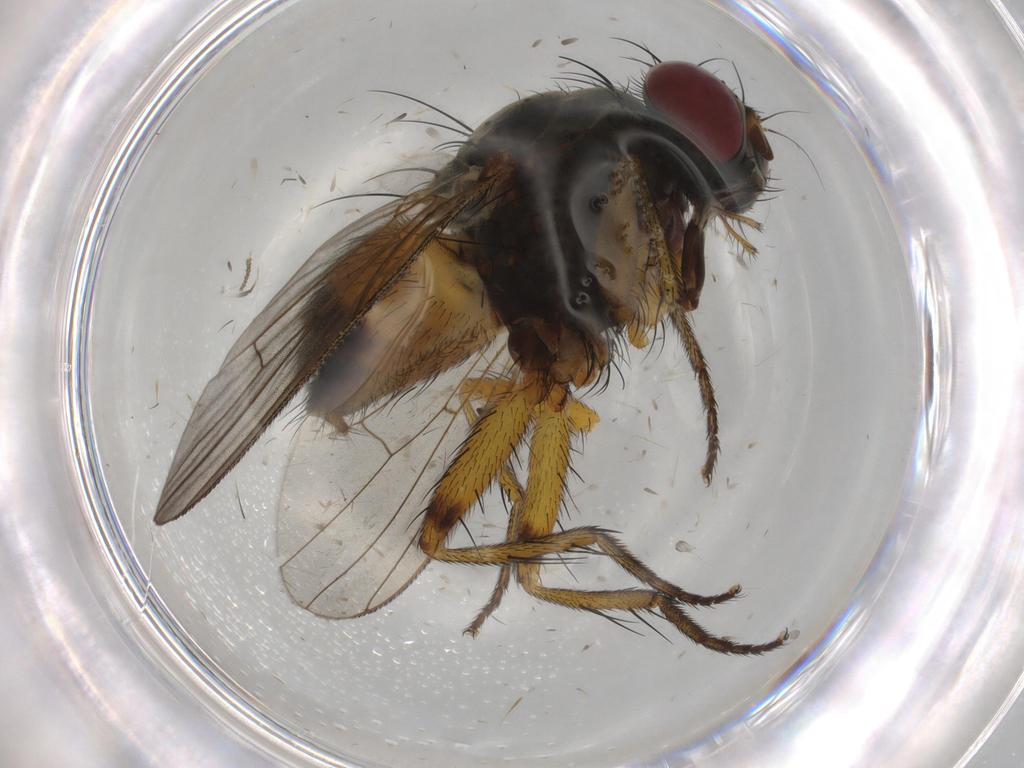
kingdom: Animalia
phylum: Arthropoda
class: Insecta
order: Diptera
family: Muscidae
